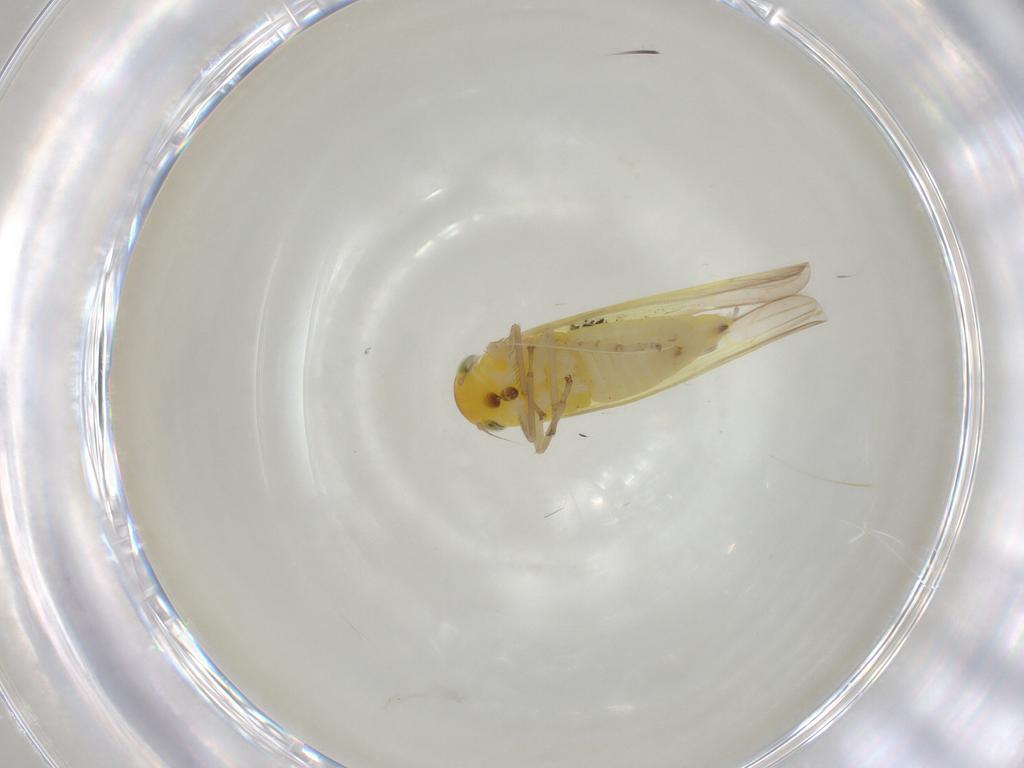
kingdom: Animalia
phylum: Arthropoda
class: Insecta
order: Hemiptera
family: Cicadellidae
